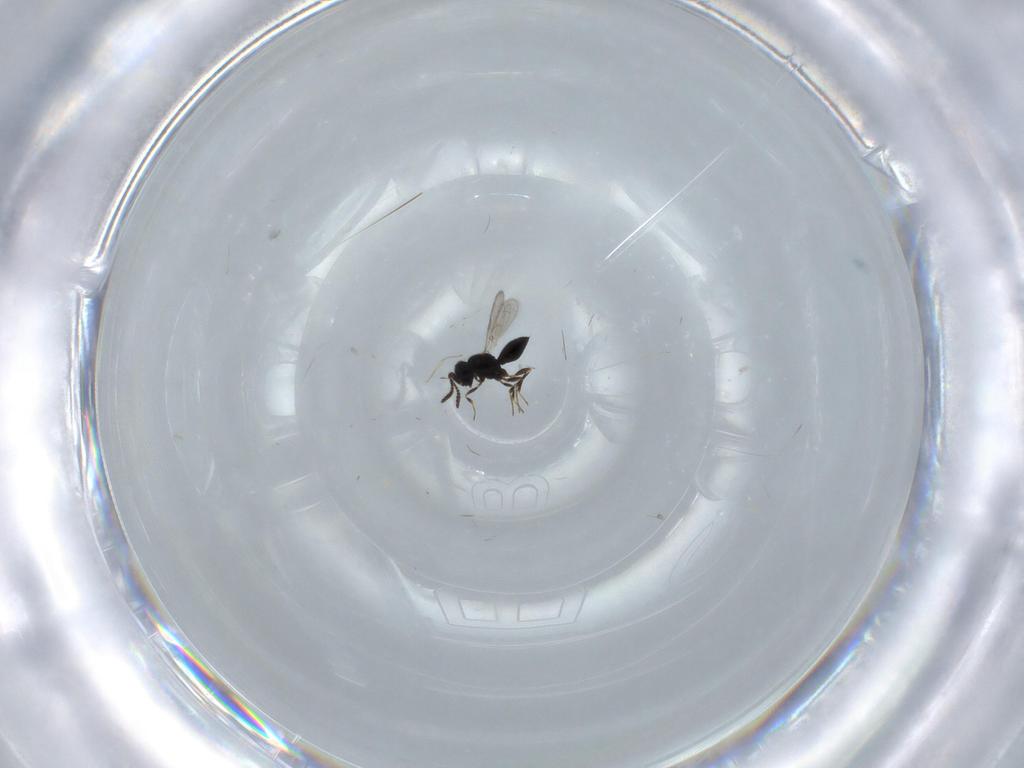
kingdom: Animalia
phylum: Arthropoda
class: Insecta
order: Hymenoptera
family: Scelionidae
